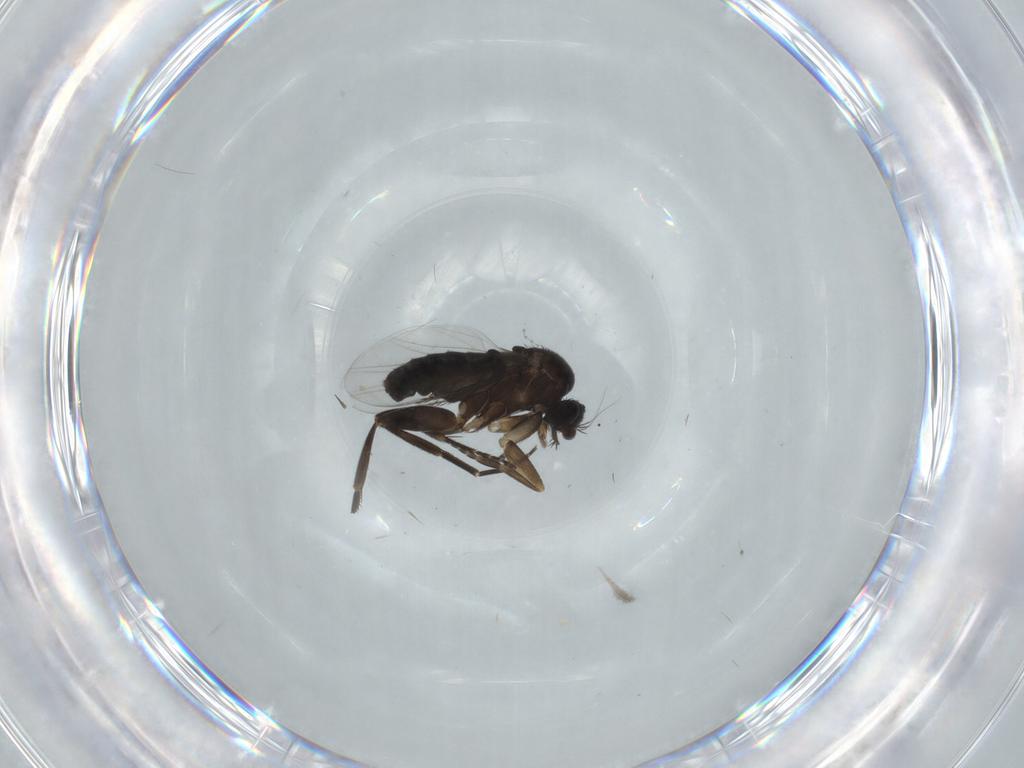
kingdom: Animalia
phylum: Arthropoda
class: Insecta
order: Diptera
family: Phoridae
